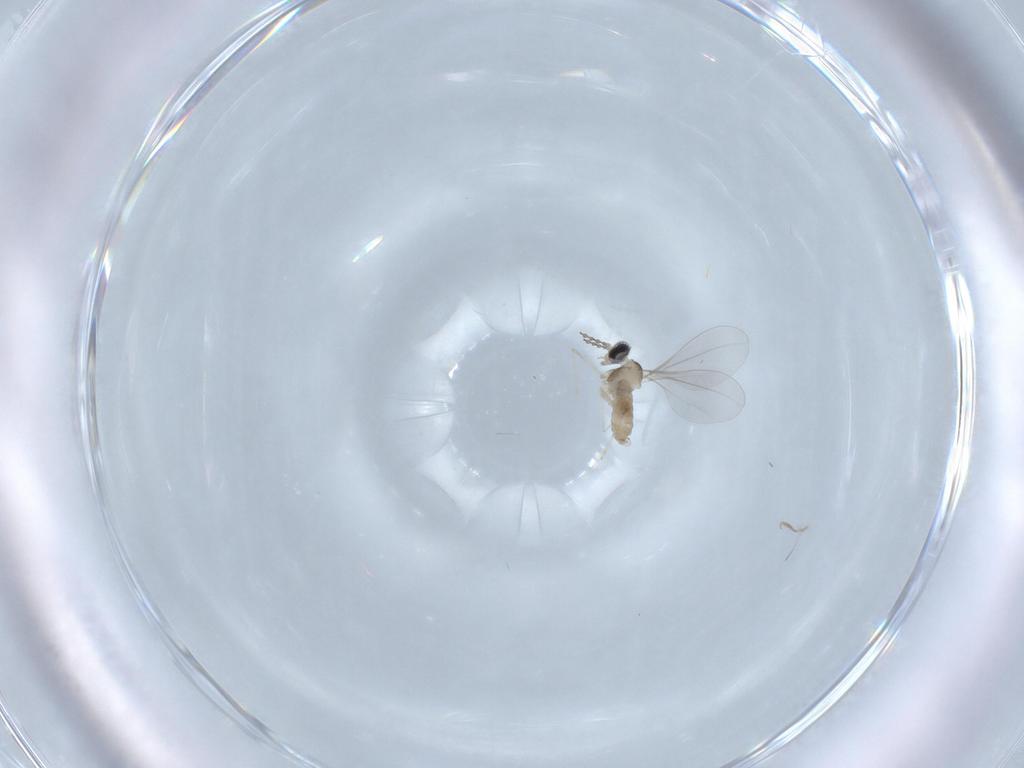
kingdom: Animalia
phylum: Arthropoda
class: Insecta
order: Diptera
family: Cecidomyiidae
